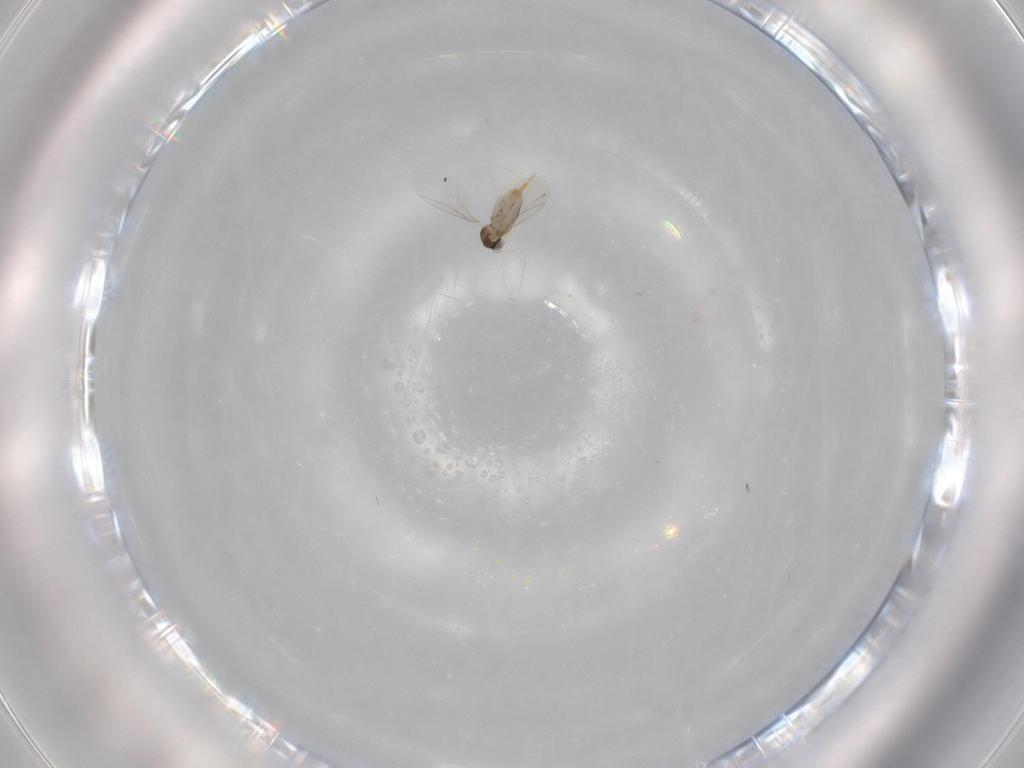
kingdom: Animalia
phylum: Arthropoda
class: Insecta
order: Diptera
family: Cecidomyiidae
